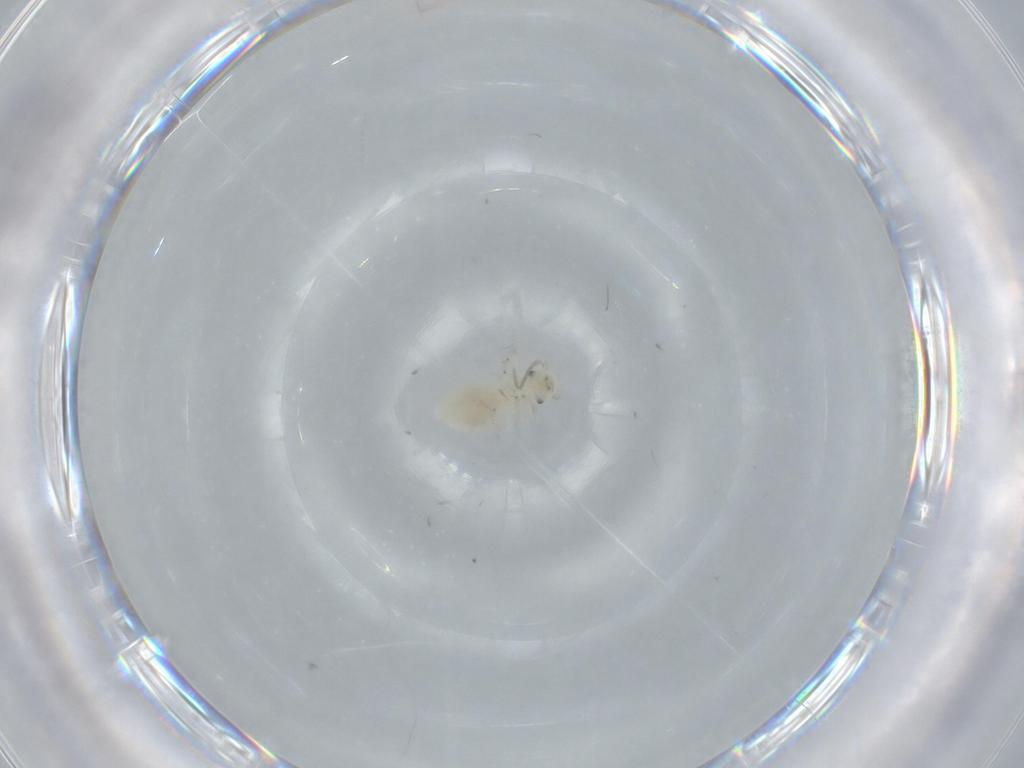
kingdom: Animalia
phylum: Arthropoda
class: Insecta
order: Psocodea
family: Caeciliusidae
